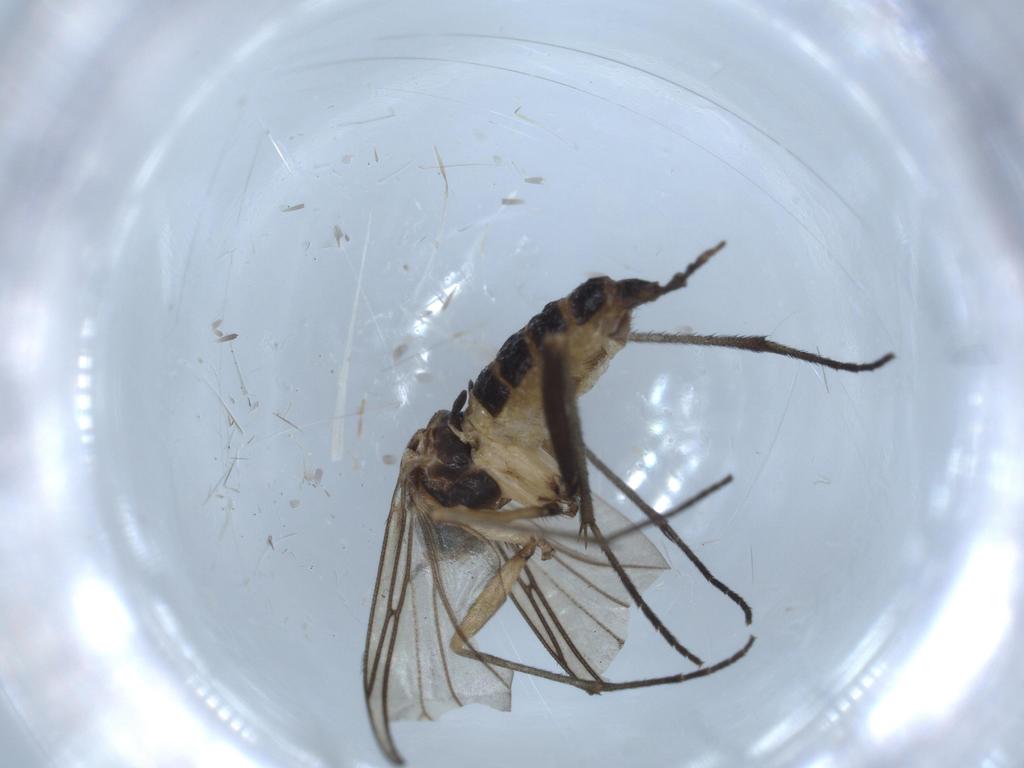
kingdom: Animalia
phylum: Arthropoda
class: Insecta
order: Diptera
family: Sciaridae
